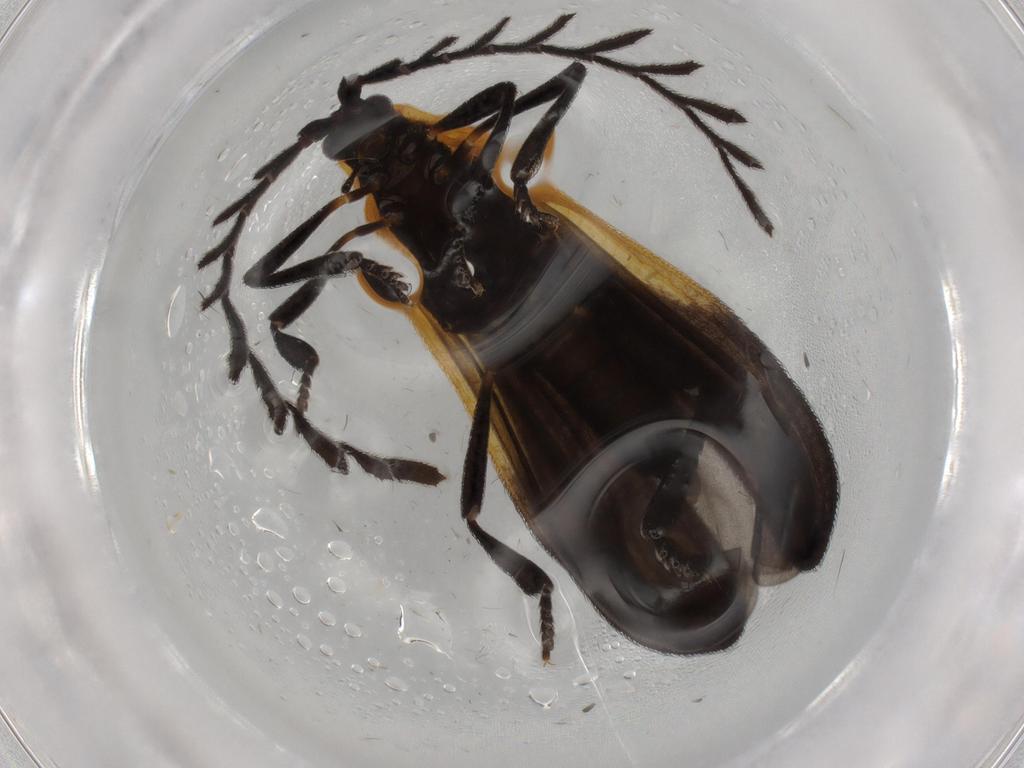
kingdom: Animalia
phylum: Arthropoda
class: Insecta
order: Coleoptera
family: Lycidae
